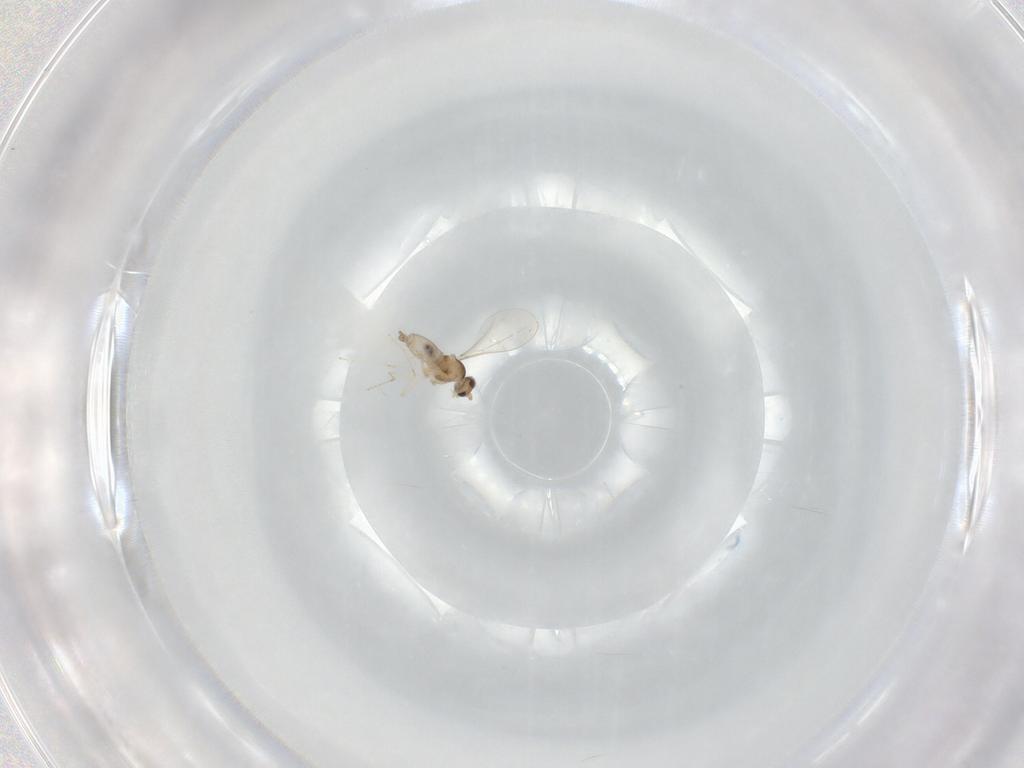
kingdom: Animalia
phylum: Arthropoda
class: Insecta
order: Diptera
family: Cecidomyiidae
